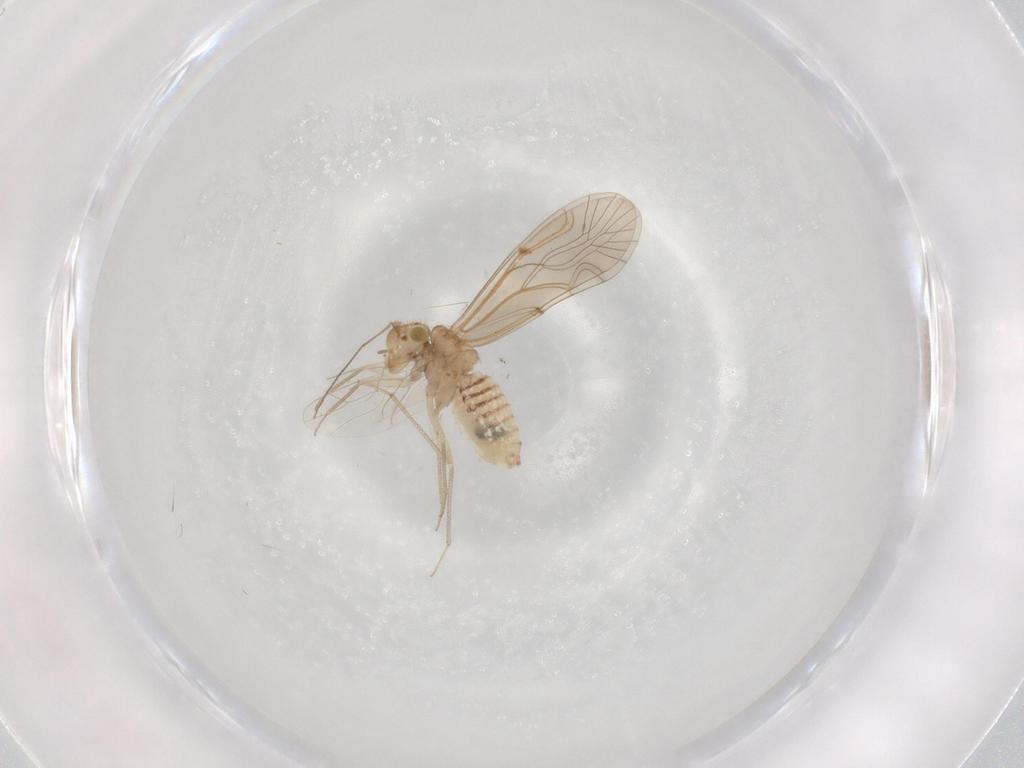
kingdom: Animalia
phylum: Arthropoda
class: Insecta
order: Psocodea
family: Lachesillidae
